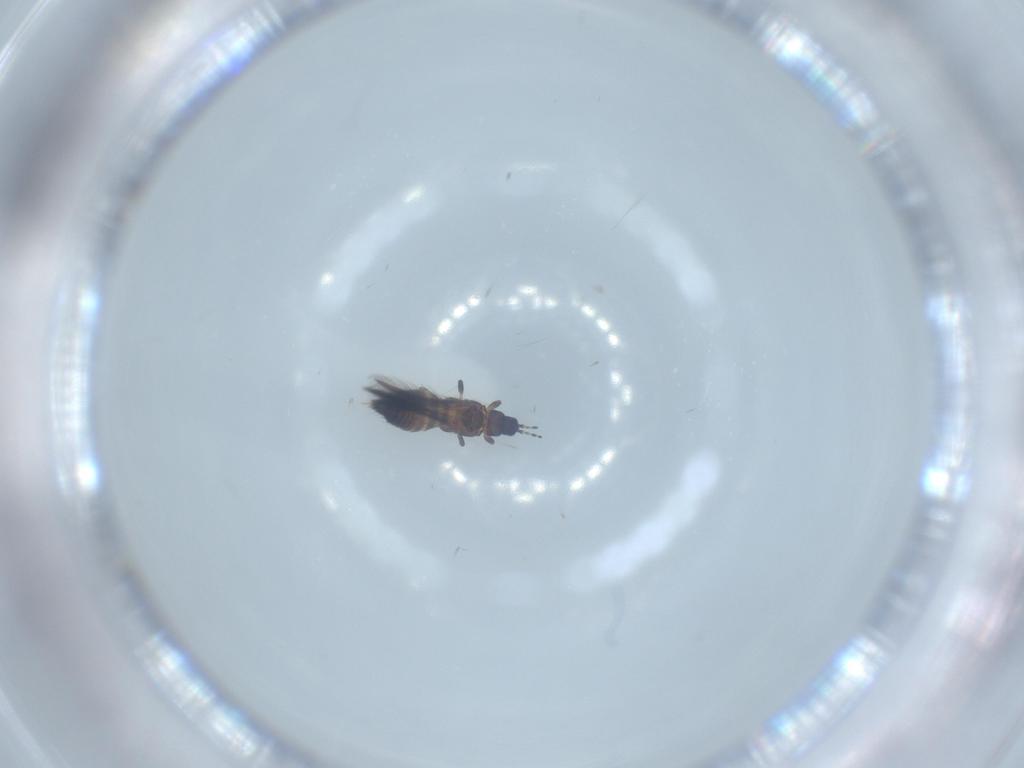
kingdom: Animalia
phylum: Arthropoda
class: Insecta
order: Thysanoptera
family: Thripidae
